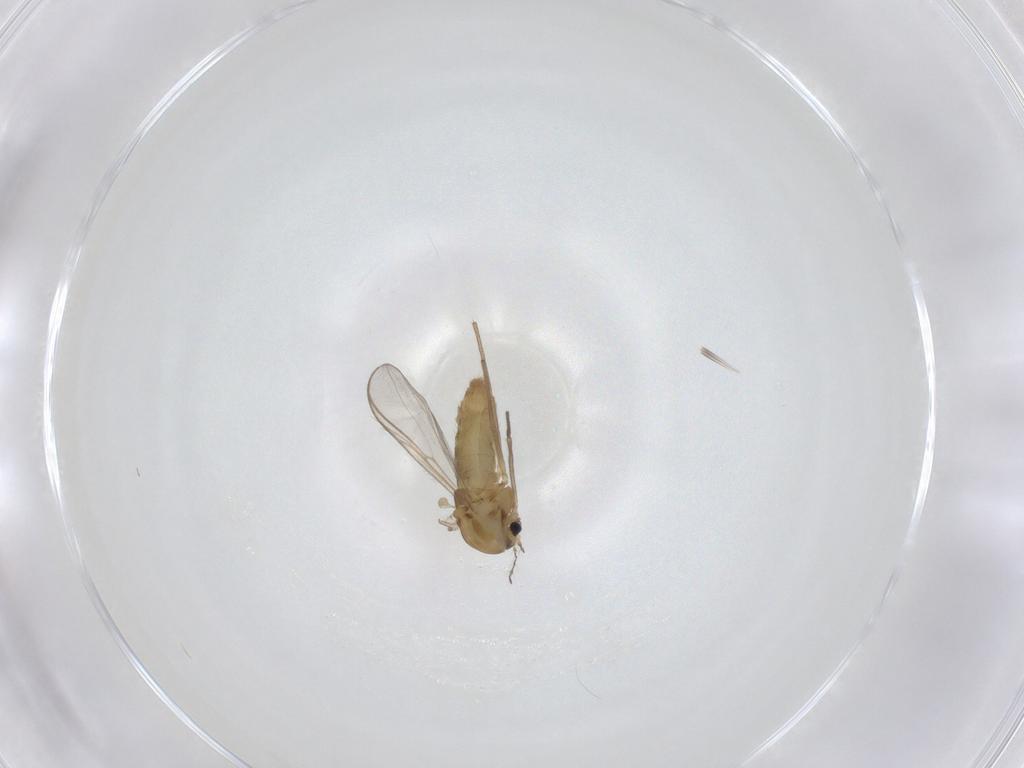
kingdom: Animalia
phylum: Arthropoda
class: Insecta
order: Diptera
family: Chironomidae
